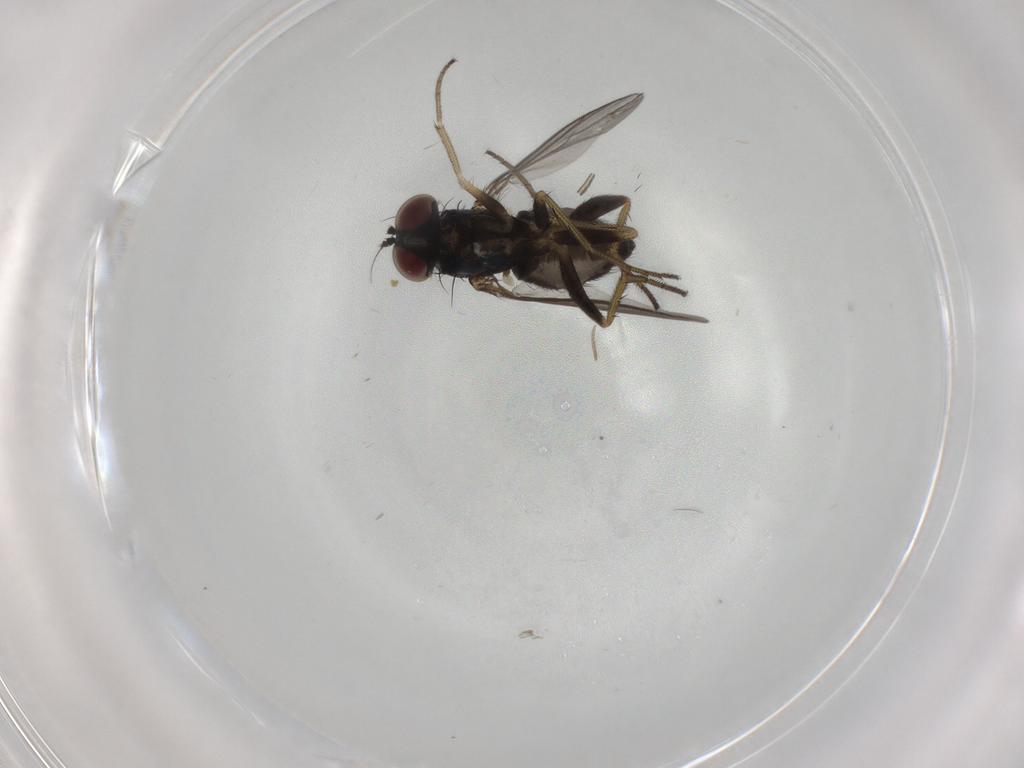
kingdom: Animalia
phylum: Arthropoda
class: Insecta
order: Diptera
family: Dolichopodidae
